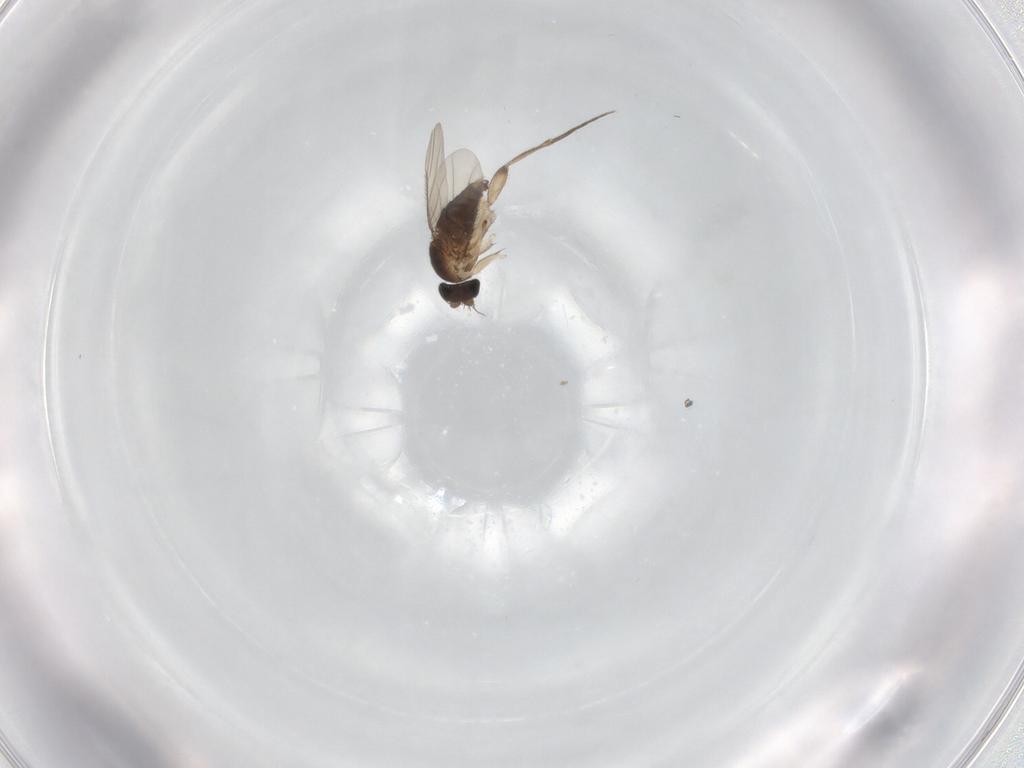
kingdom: Animalia
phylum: Arthropoda
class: Insecta
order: Diptera
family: Phoridae
